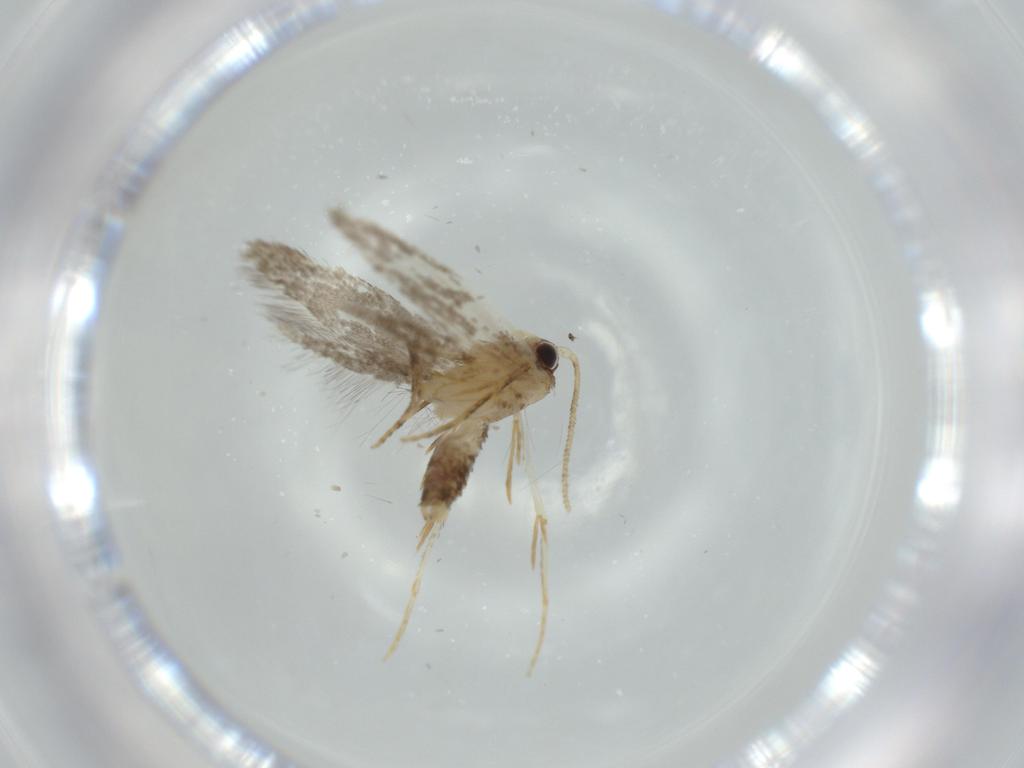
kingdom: Animalia
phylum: Arthropoda
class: Insecta
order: Lepidoptera
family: Tineidae
